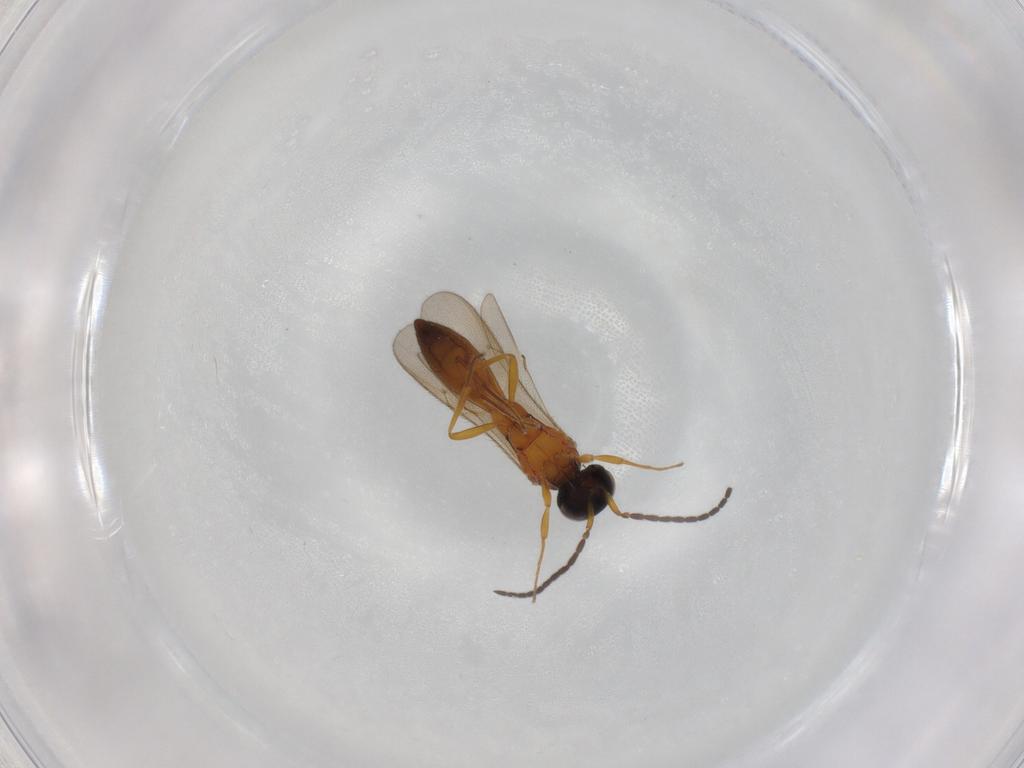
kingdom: Animalia
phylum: Arthropoda
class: Insecta
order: Hymenoptera
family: Scelionidae
